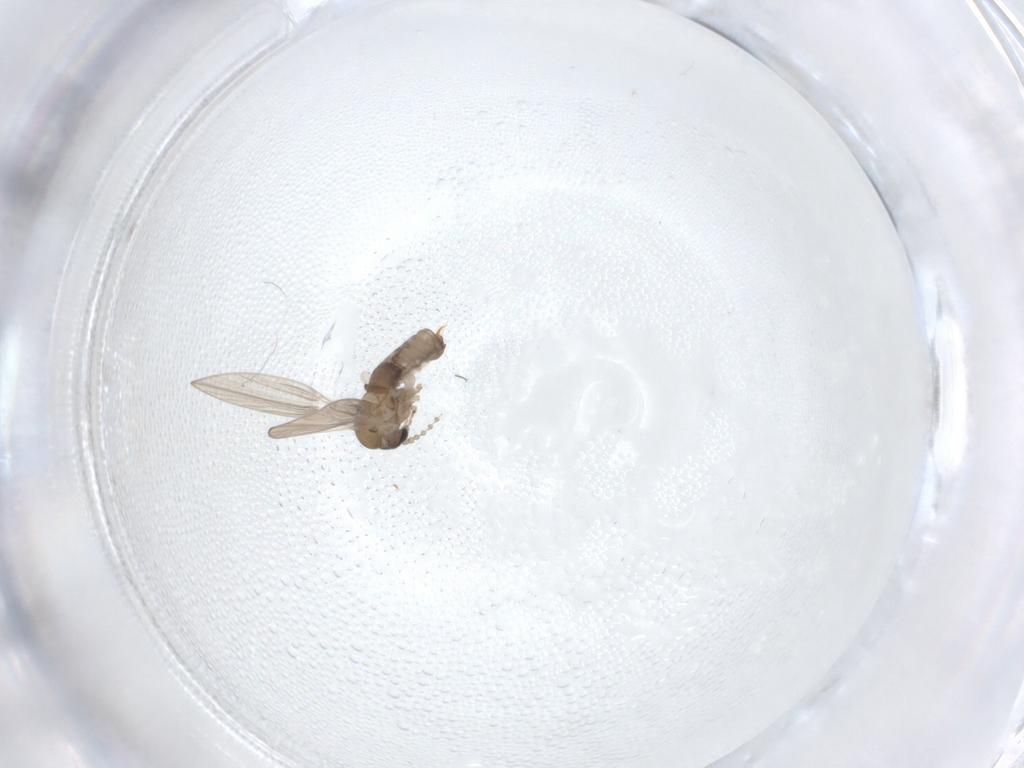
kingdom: Animalia
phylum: Arthropoda
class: Insecta
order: Diptera
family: Psychodidae
